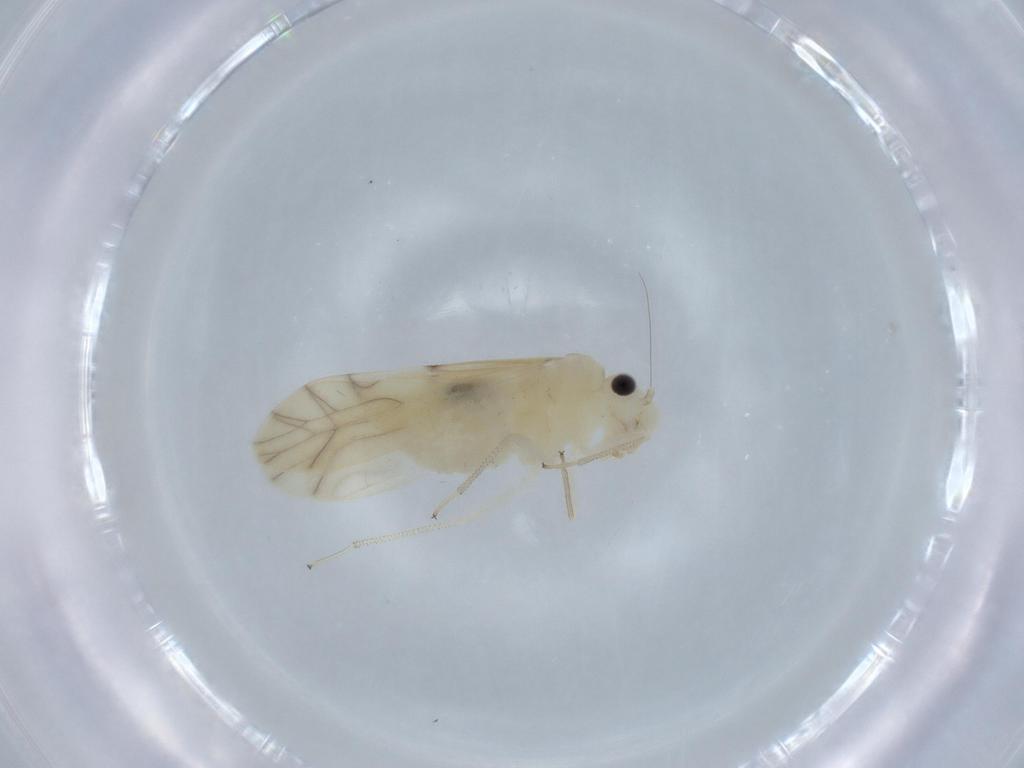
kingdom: Animalia
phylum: Arthropoda
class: Insecta
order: Psocodea
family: Caeciliusidae
